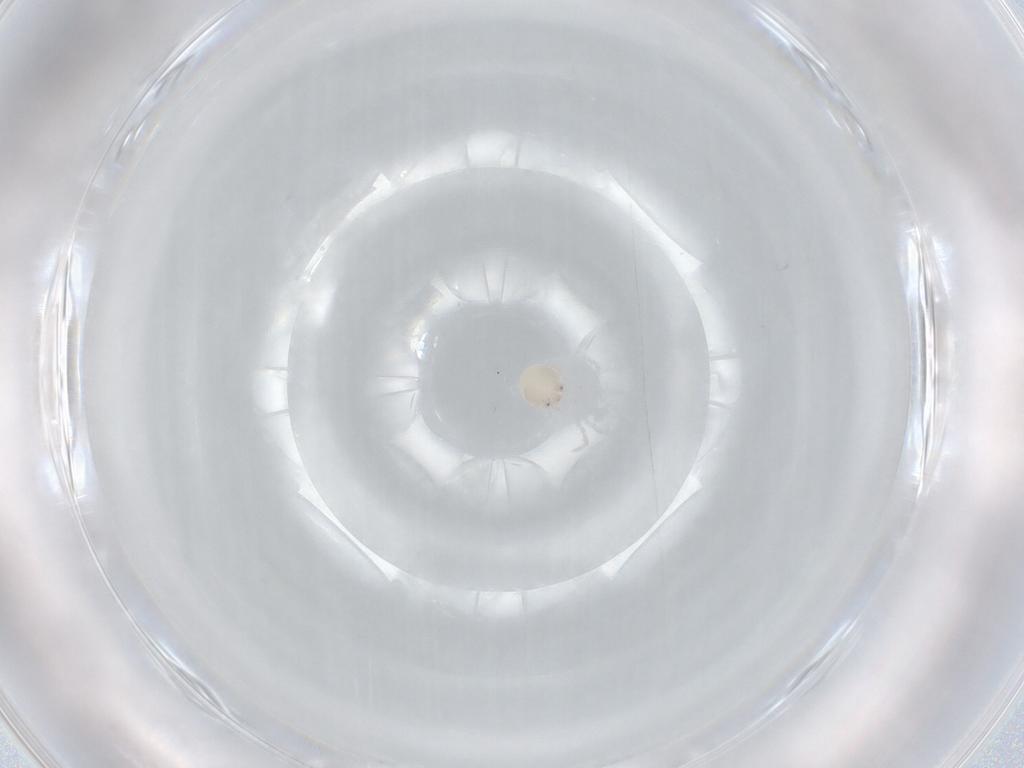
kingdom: Animalia
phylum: Arthropoda
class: Arachnida
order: Trombidiformes
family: Arrenuridae
